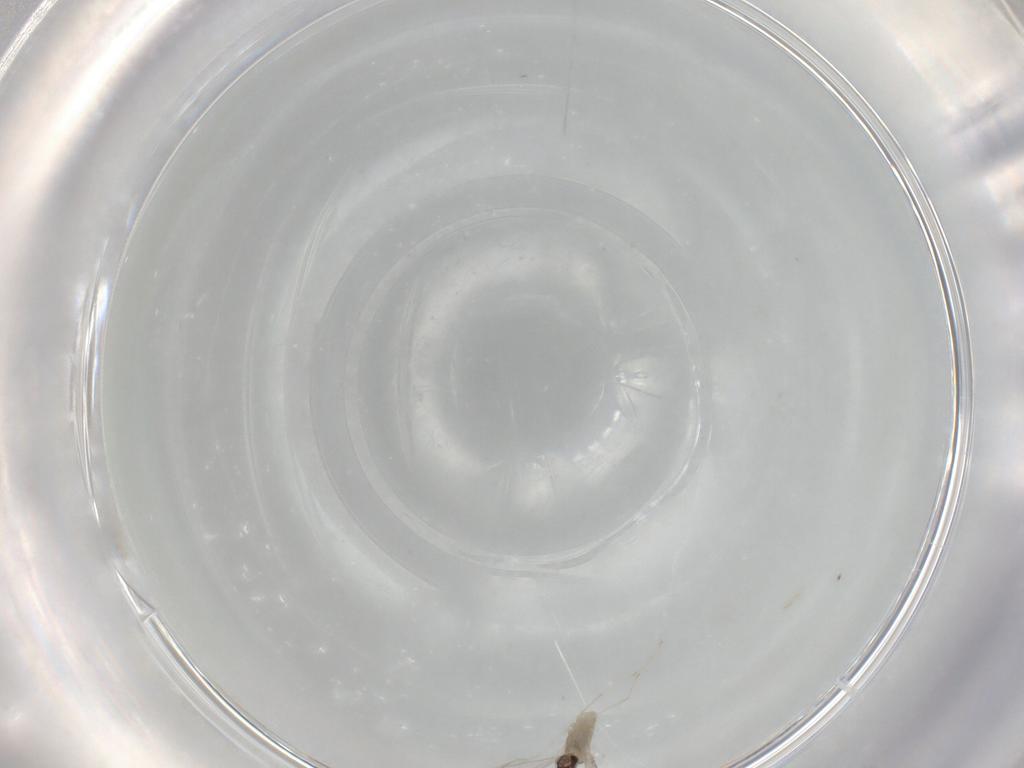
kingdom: Animalia
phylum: Arthropoda
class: Insecta
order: Diptera
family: Cecidomyiidae
